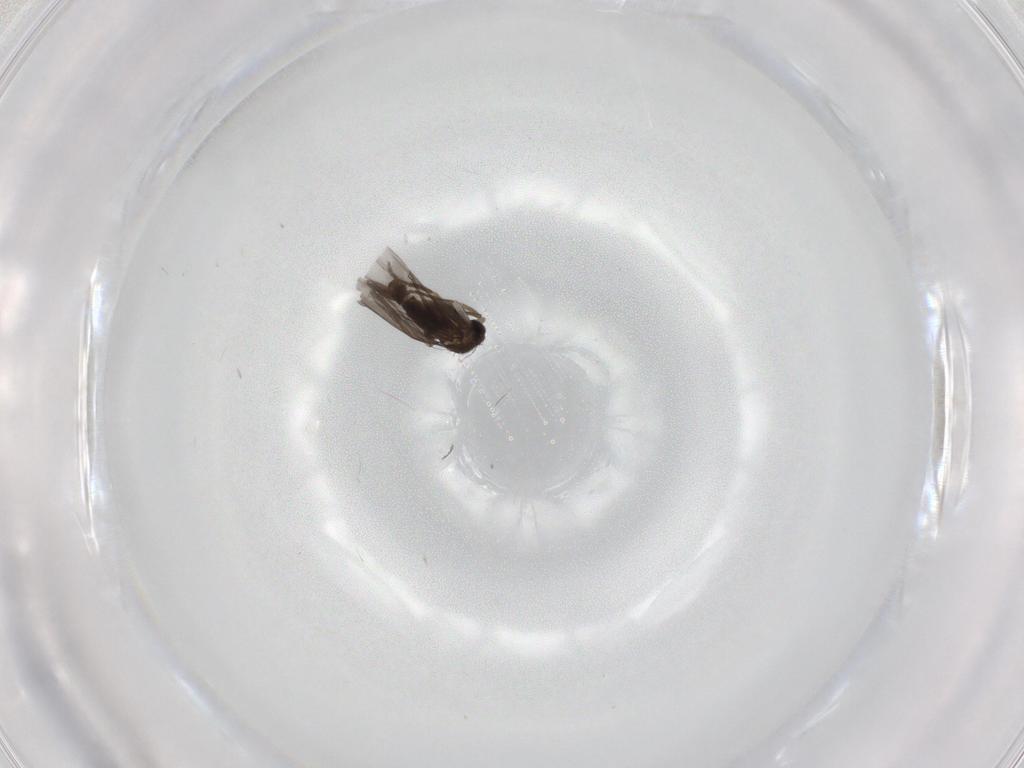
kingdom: Animalia
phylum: Arthropoda
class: Insecta
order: Diptera
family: Phoridae
